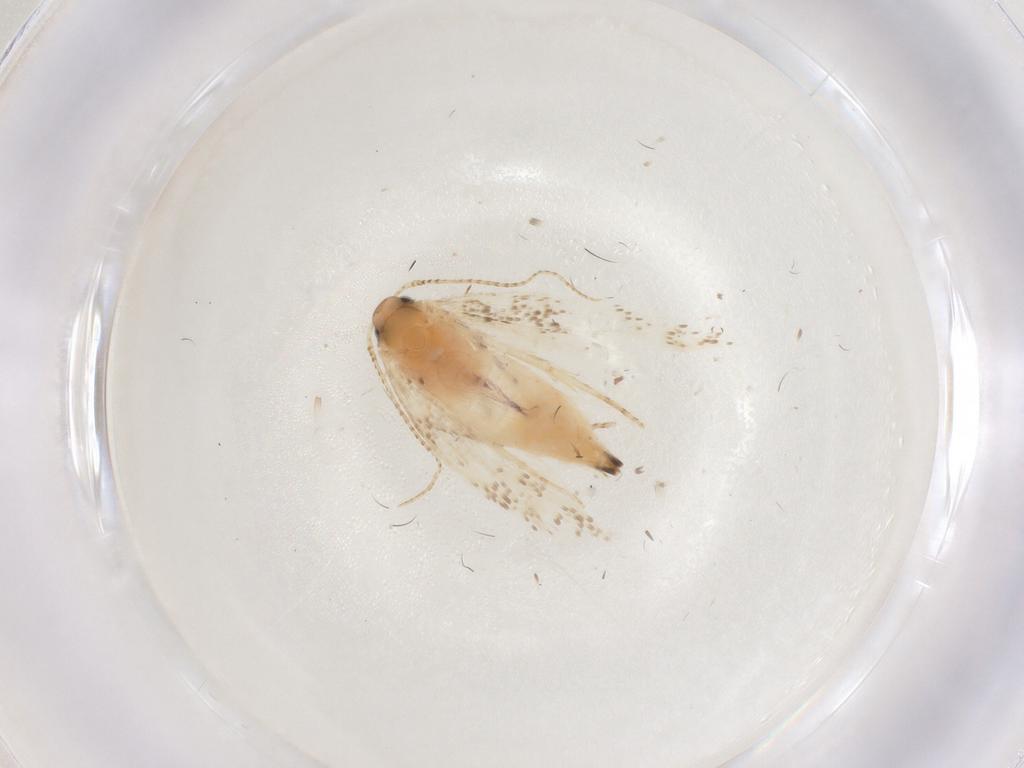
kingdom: Animalia
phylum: Arthropoda
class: Insecta
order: Lepidoptera
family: Gelechiidae
